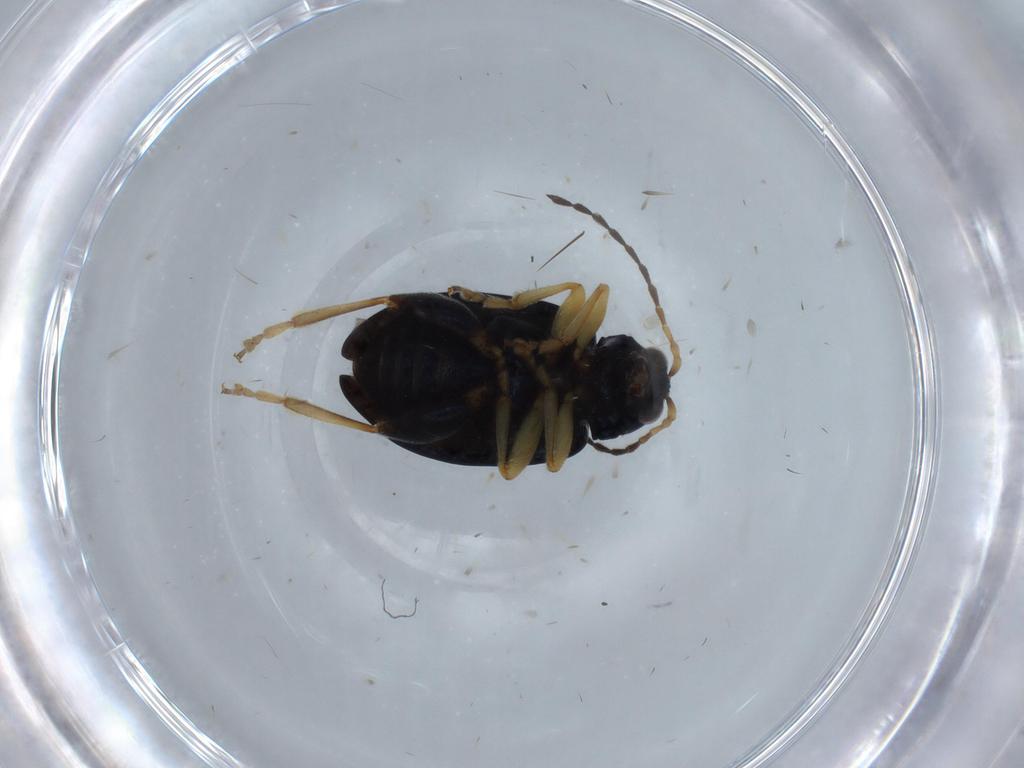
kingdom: Animalia
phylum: Arthropoda
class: Insecta
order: Coleoptera
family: Chrysomelidae
